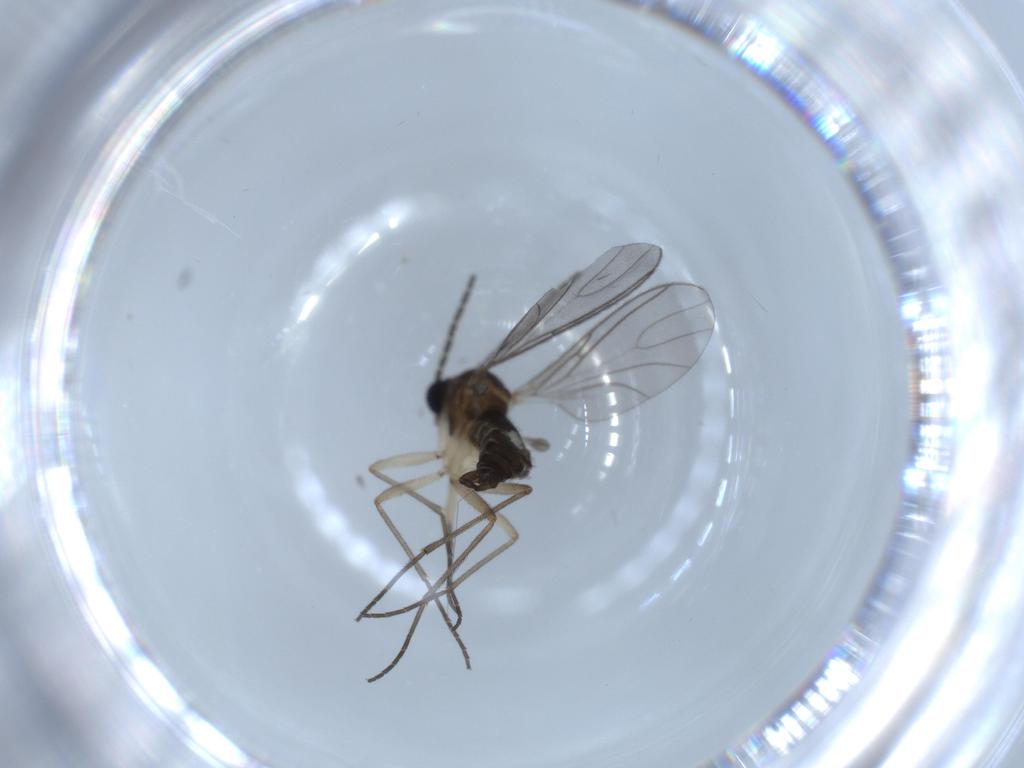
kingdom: Animalia
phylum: Arthropoda
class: Insecta
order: Diptera
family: Sciaridae
